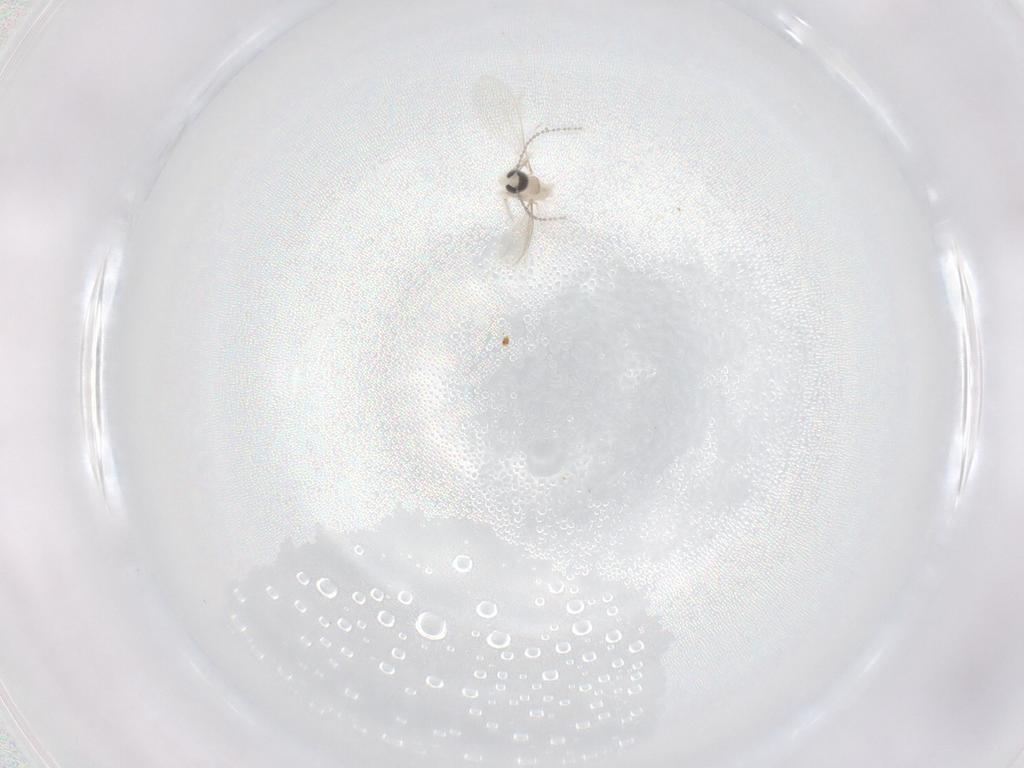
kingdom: Animalia
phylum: Arthropoda
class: Insecta
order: Diptera
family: Cecidomyiidae
